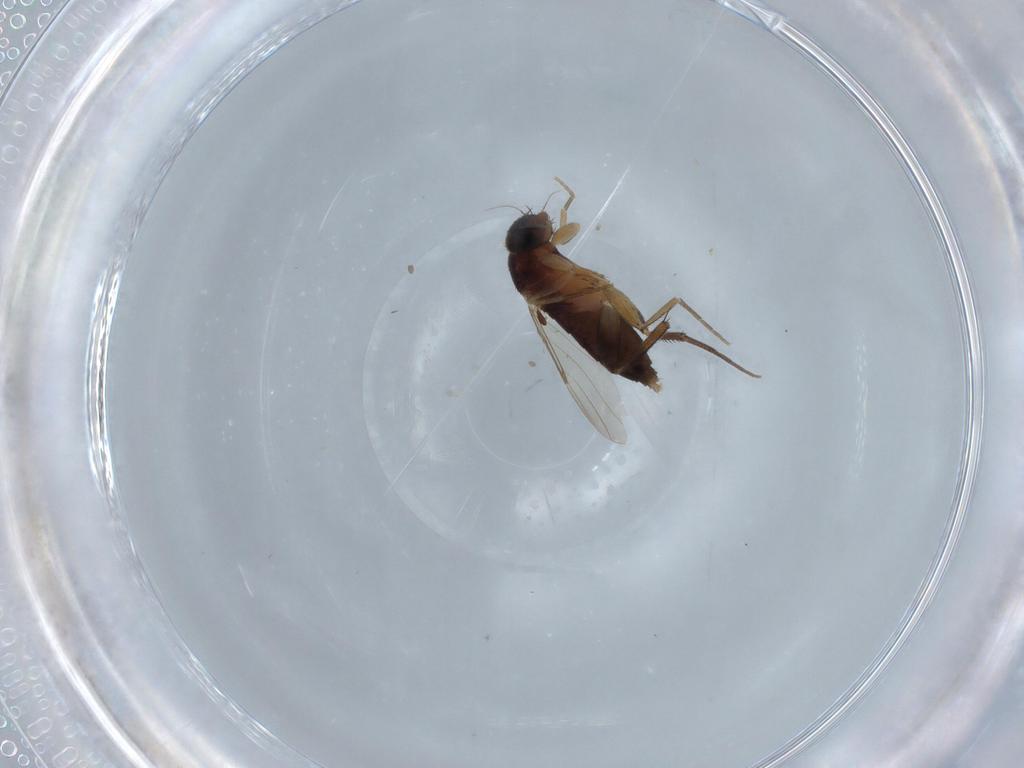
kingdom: Animalia
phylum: Arthropoda
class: Insecta
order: Diptera
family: Phoridae
